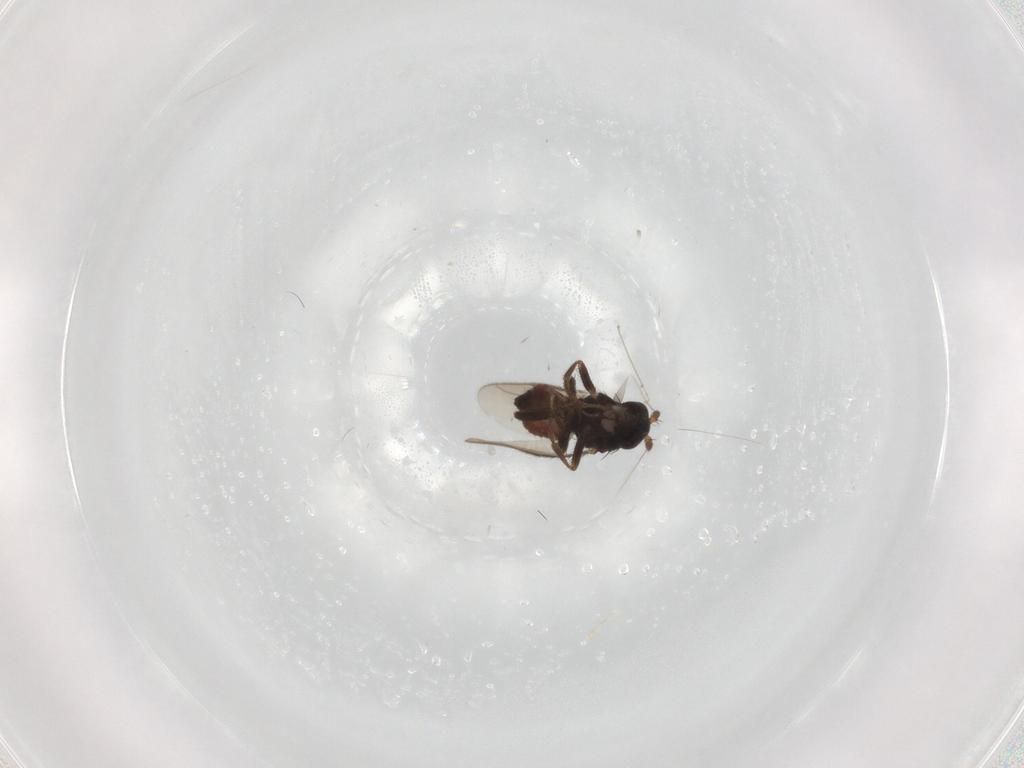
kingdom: Animalia
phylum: Arthropoda
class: Insecta
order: Diptera
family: Sphaeroceridae
